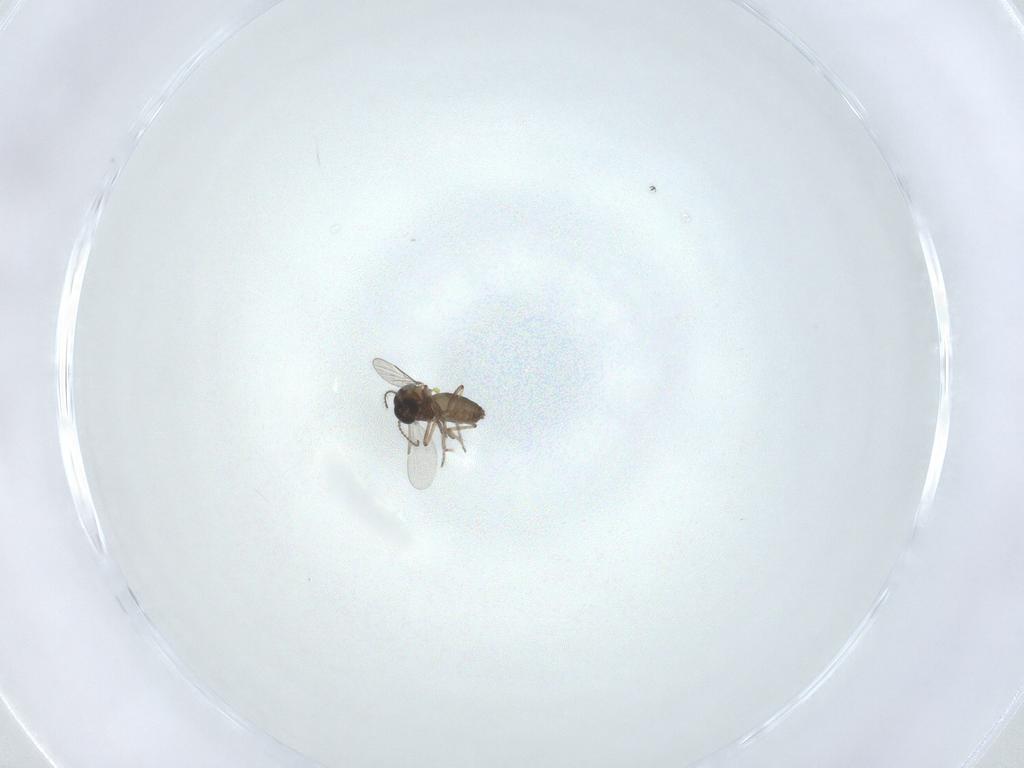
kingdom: Animalia
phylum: Arthropoda
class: Insecta
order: Diptera
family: Ceratopogonidae
